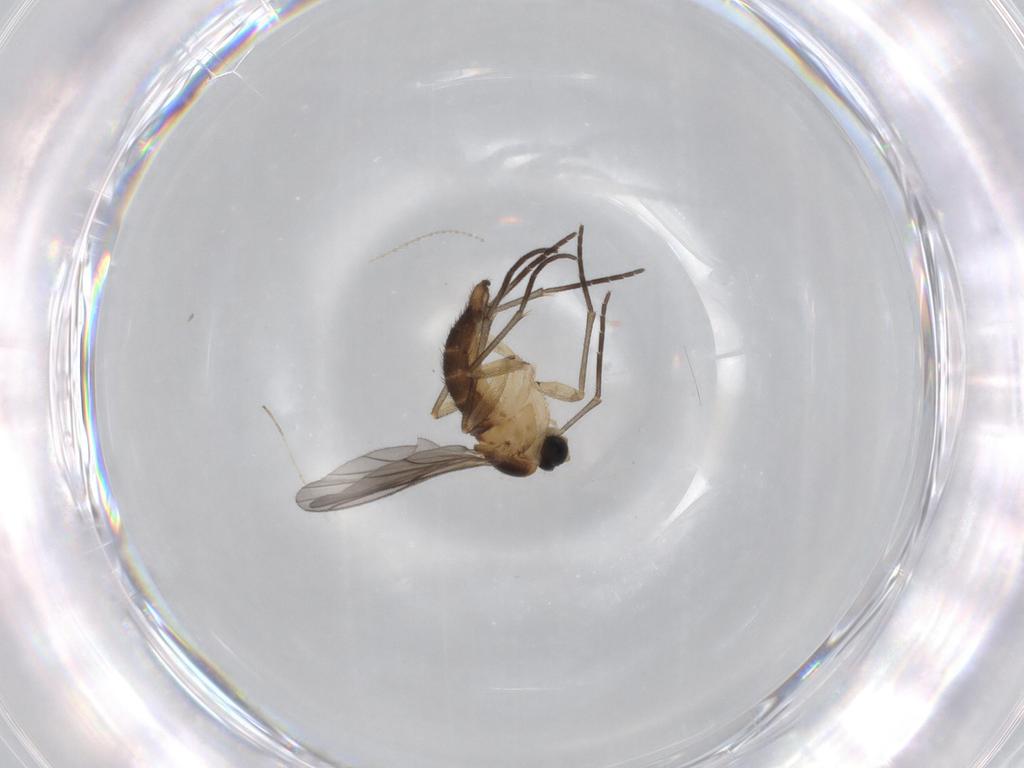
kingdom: Animalia
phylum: Arthropoda
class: Insecta
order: Diptera
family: Sciaridae
